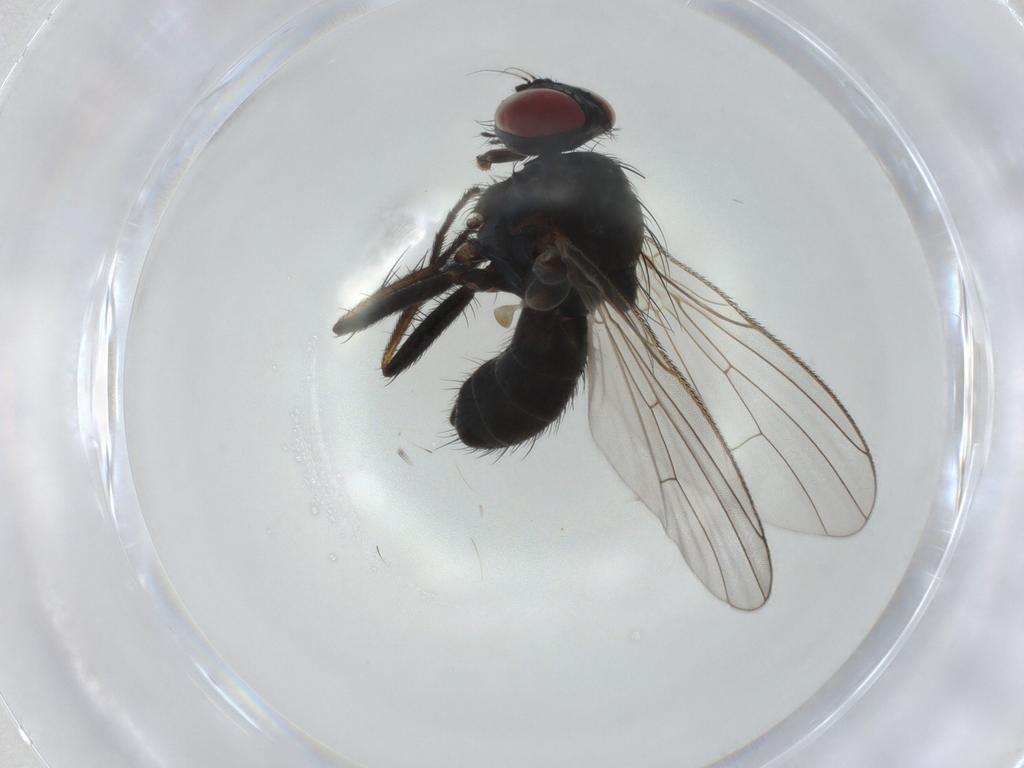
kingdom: Animalia
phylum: Arthropoda
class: Insecta
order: Diptera
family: Muscidae
